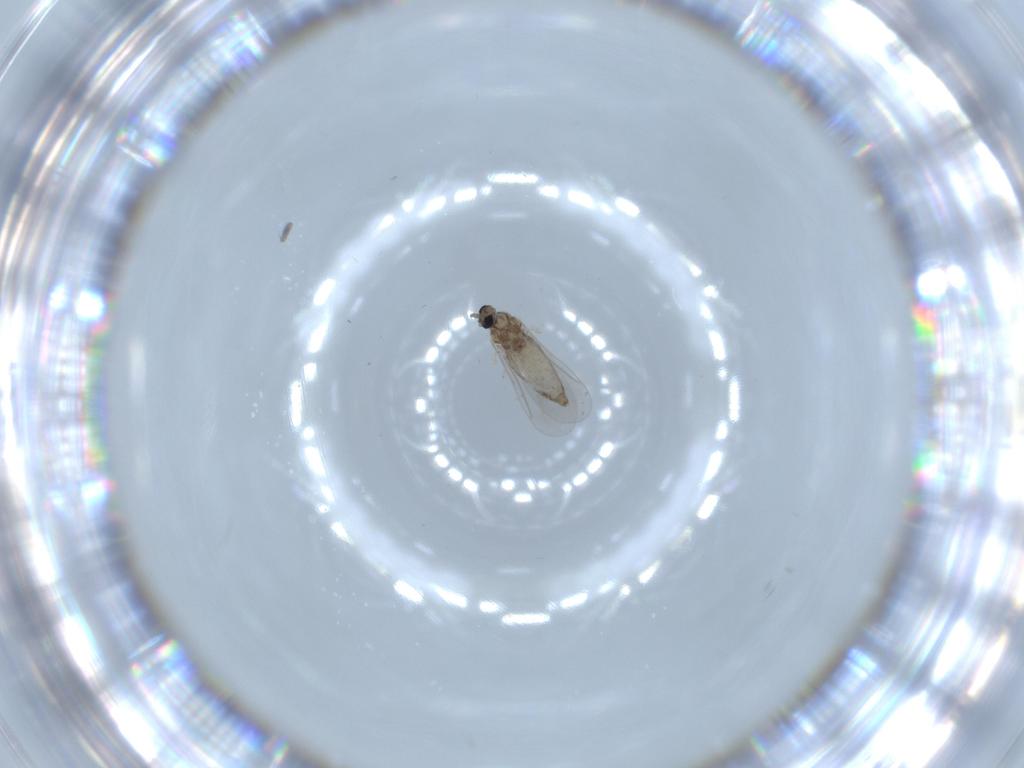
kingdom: Animalia
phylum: Arthropoda
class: Insecta
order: Diptera
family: Cecidomyiidae
